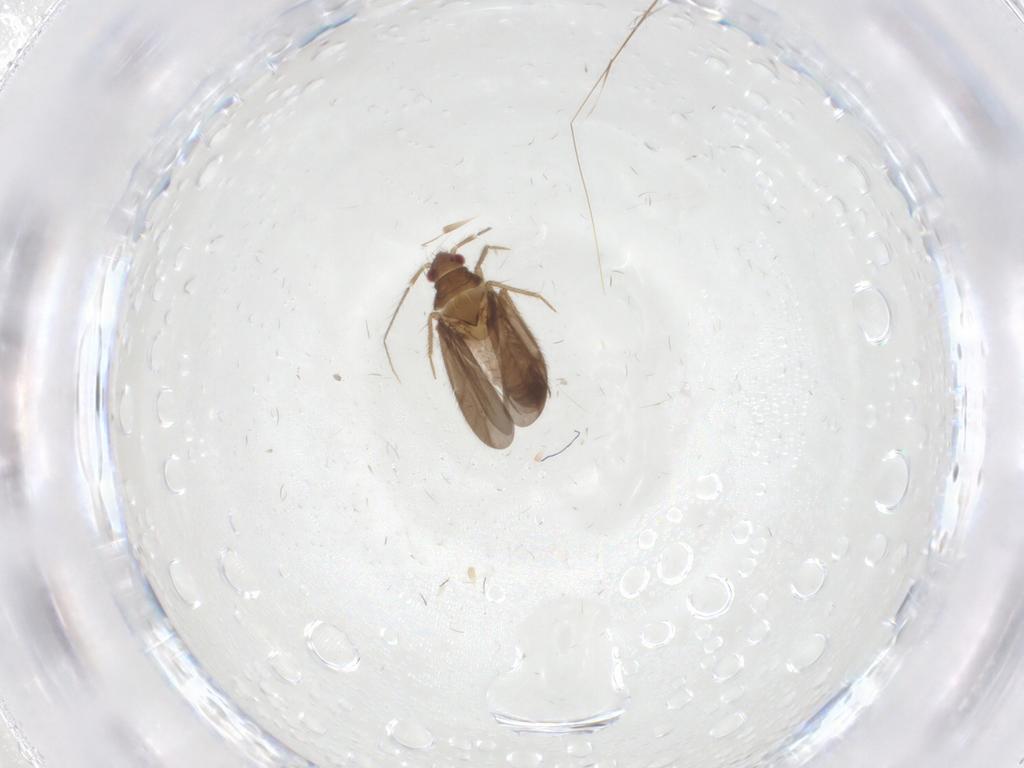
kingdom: Animalia
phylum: Arthropoda
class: Insecta
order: Hemiptera
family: Ceratocombidae
